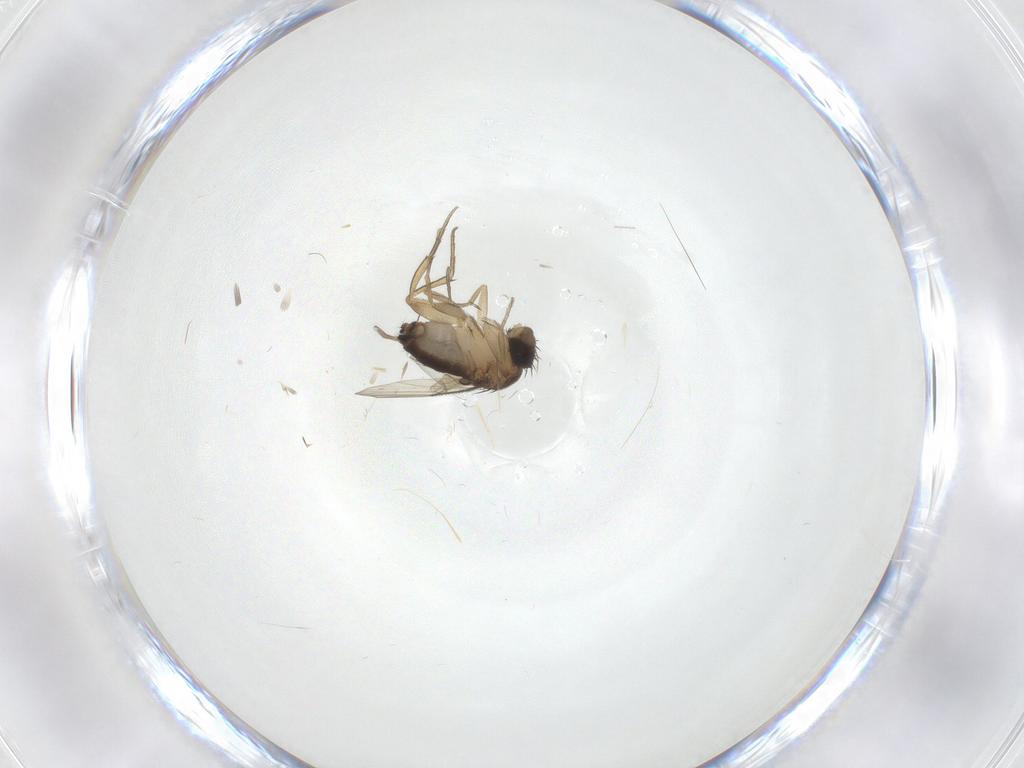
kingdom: Animalia
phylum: Arthropoda
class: Insecta
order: Diptera
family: Phoridae
